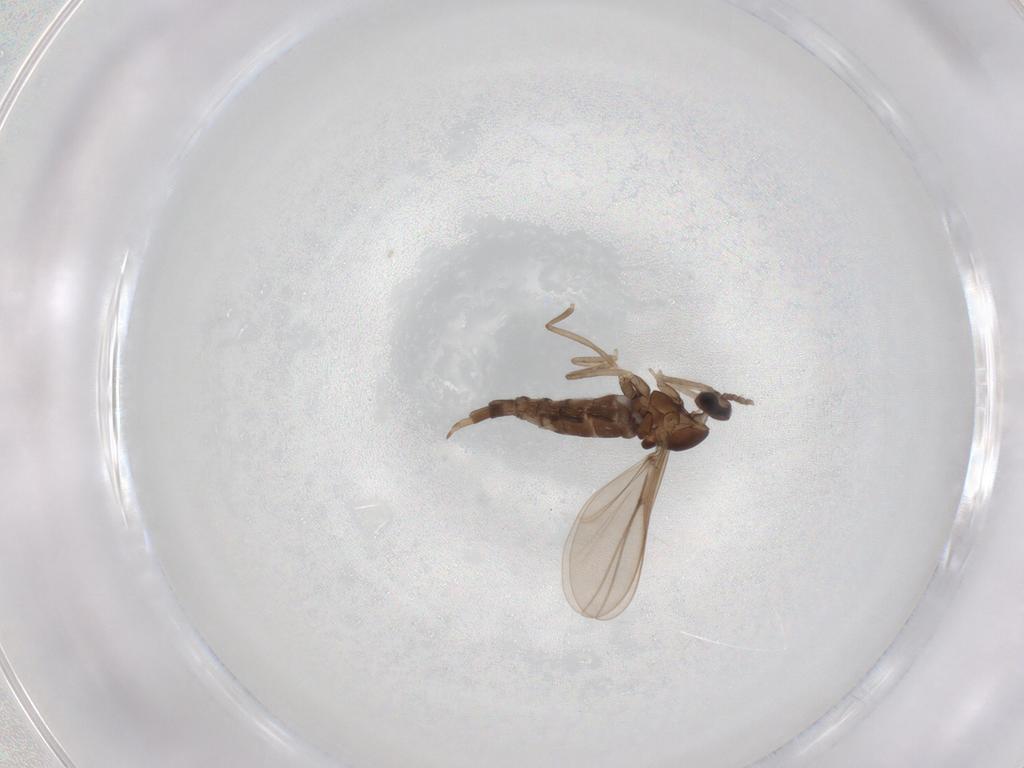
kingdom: Animalia
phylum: Arthropoda
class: Insecta
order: Diptera
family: Cecidomyiidae
